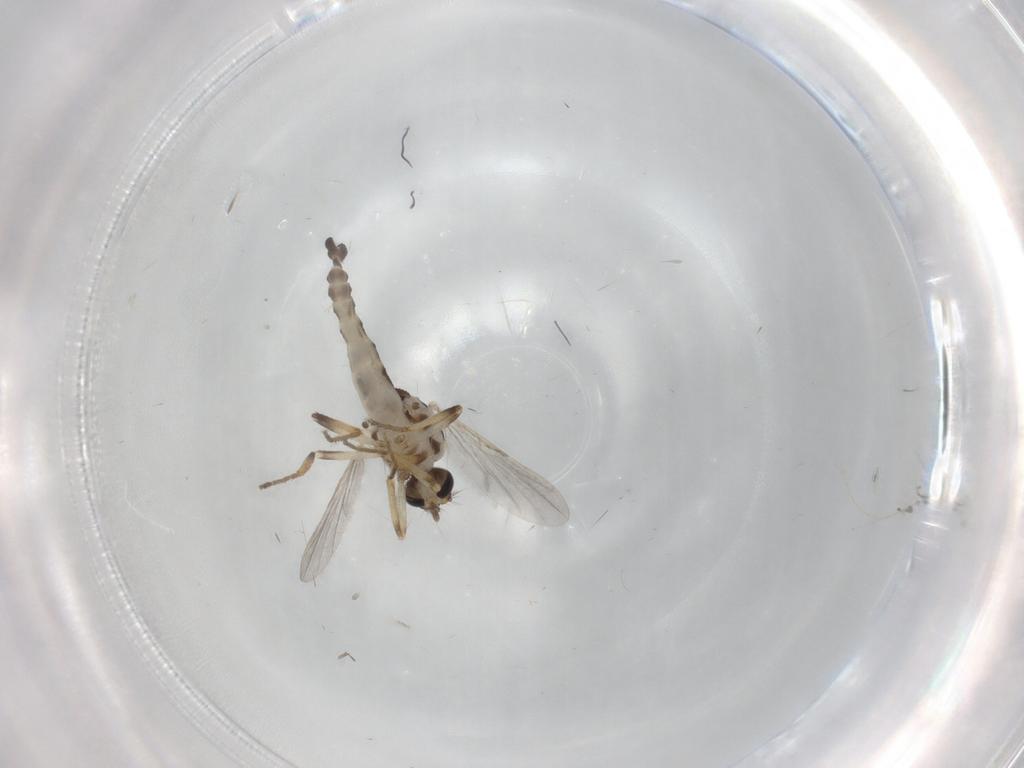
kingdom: Animalia
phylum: Arthropoda
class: Insecta
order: Diptera
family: Ceratopogonidae
